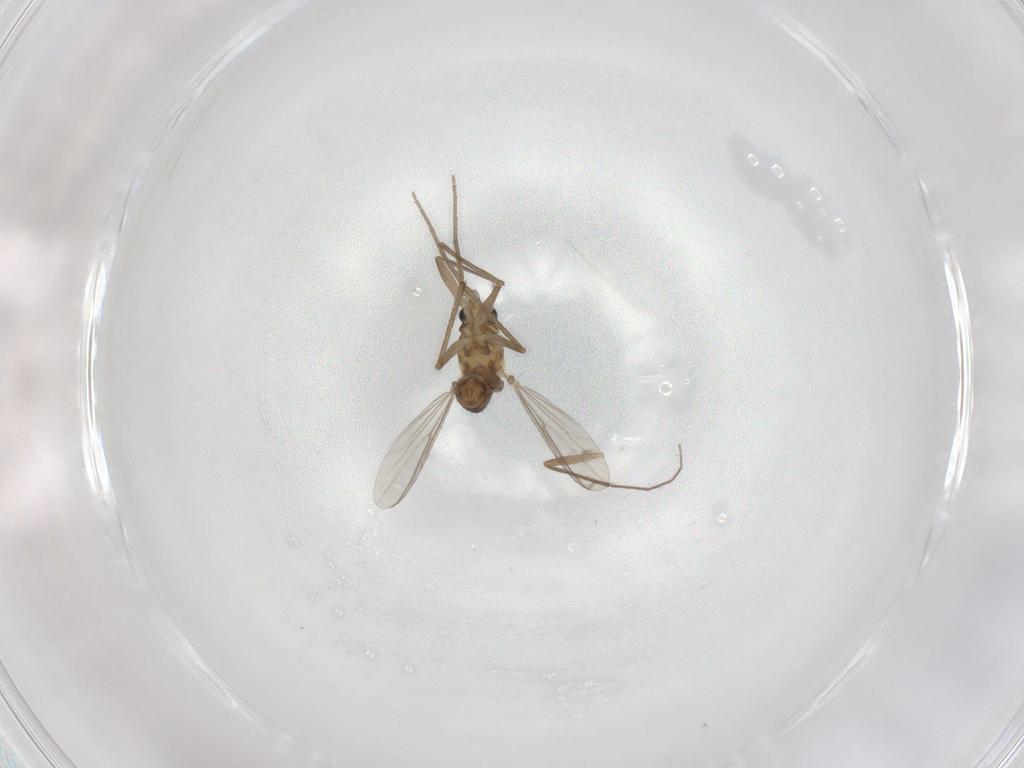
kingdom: Animalia
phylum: Arthropoda
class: Insecta
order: Diptera
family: Chironomidae
